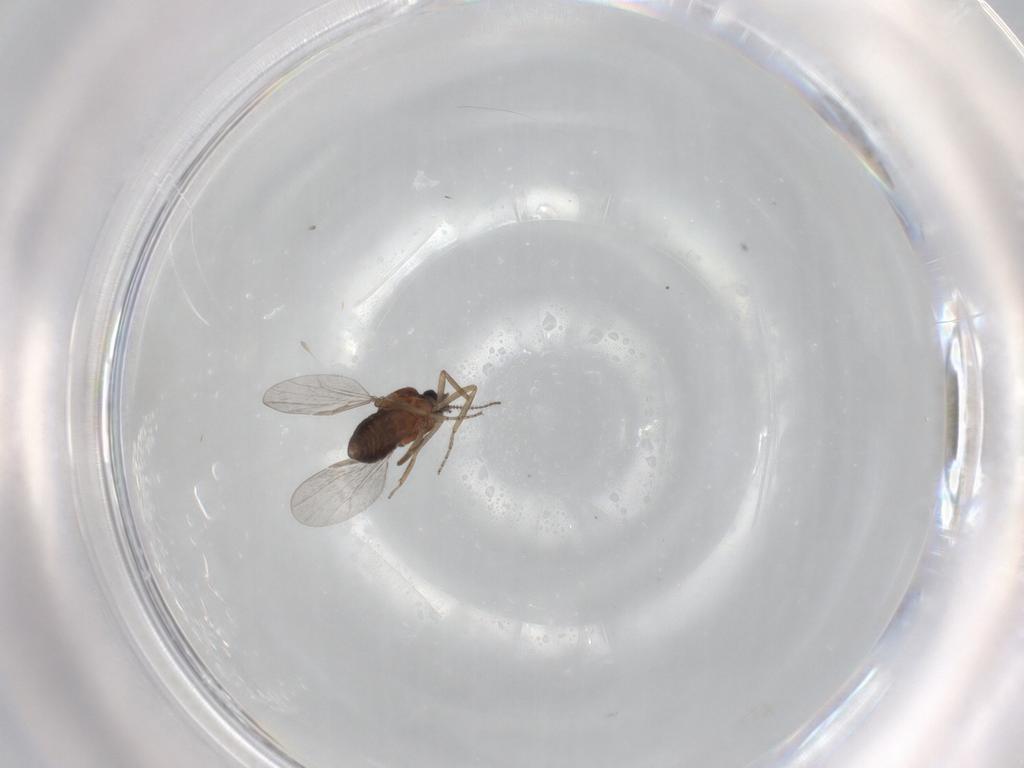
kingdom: Animalia
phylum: Arthropoda
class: Insecta
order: Diptera
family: Ceratopogonidae
